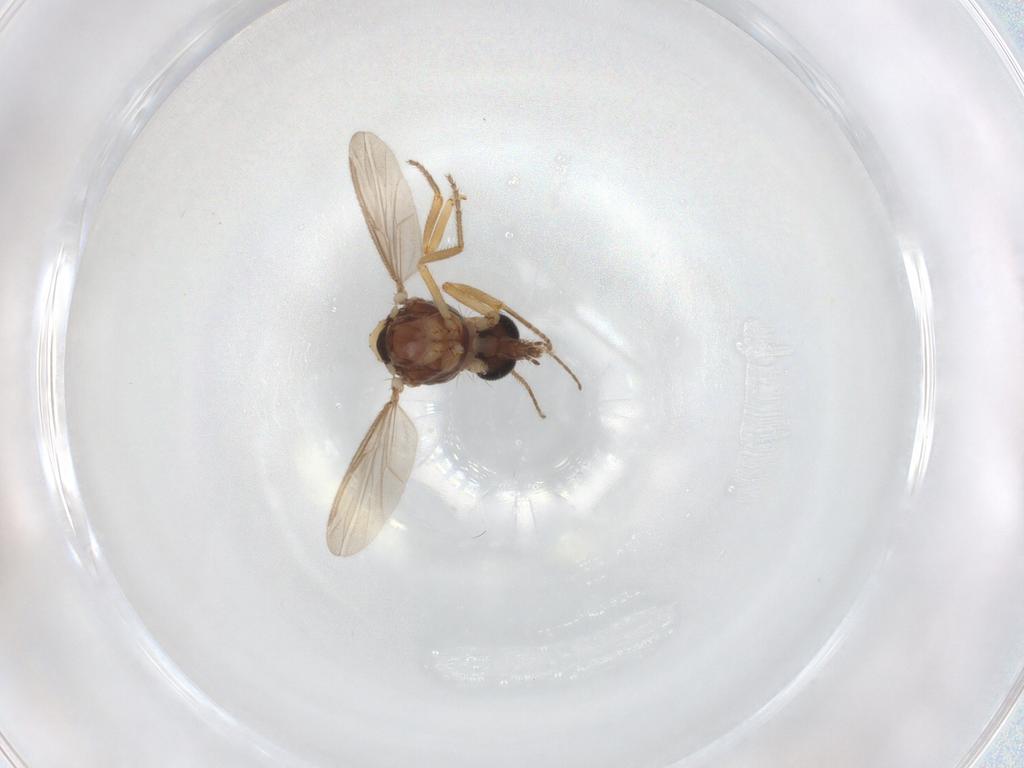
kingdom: Animalia
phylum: Arthropoda
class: Insecta
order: Diptera
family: Ceratopogonidae
